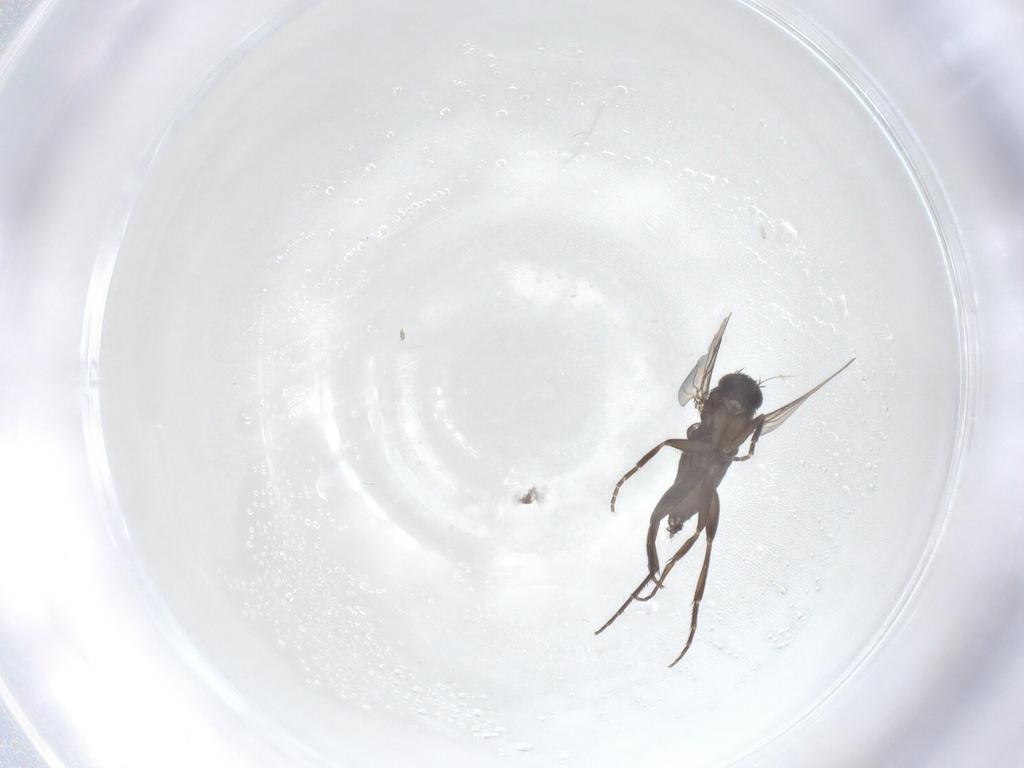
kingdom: Animalia
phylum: Arthropoda
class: Insecta
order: Diptera
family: Phoridae
